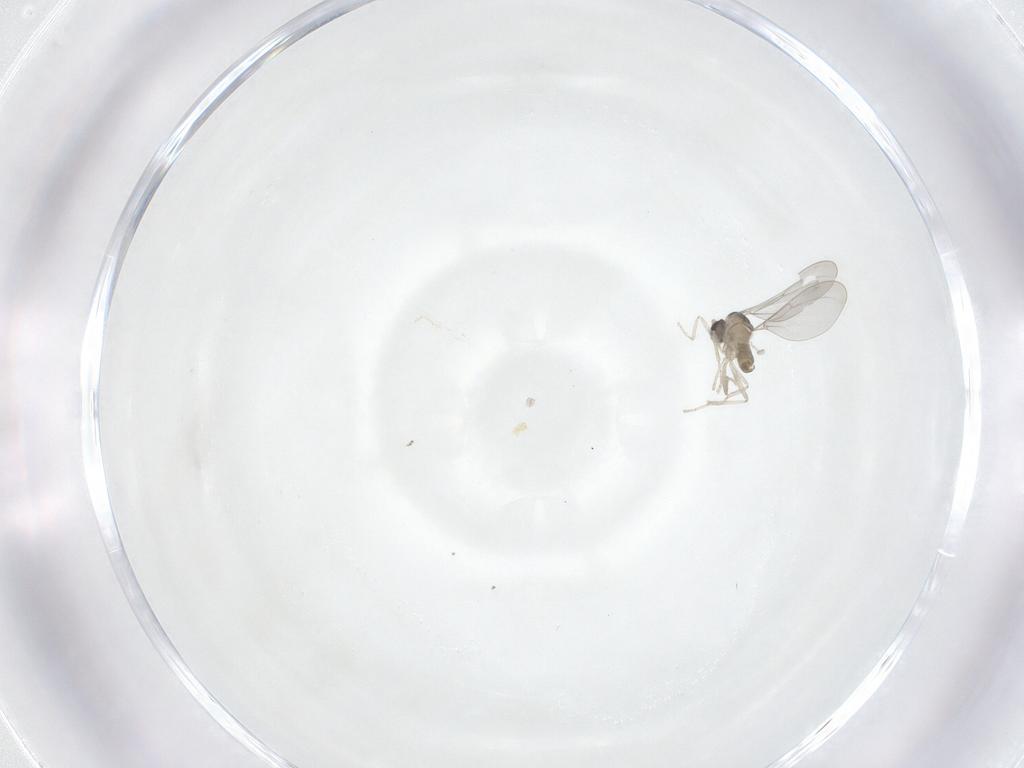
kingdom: Animalia
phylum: Arthropoda
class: Insecta
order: Diptera
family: Cecidomyiidae
